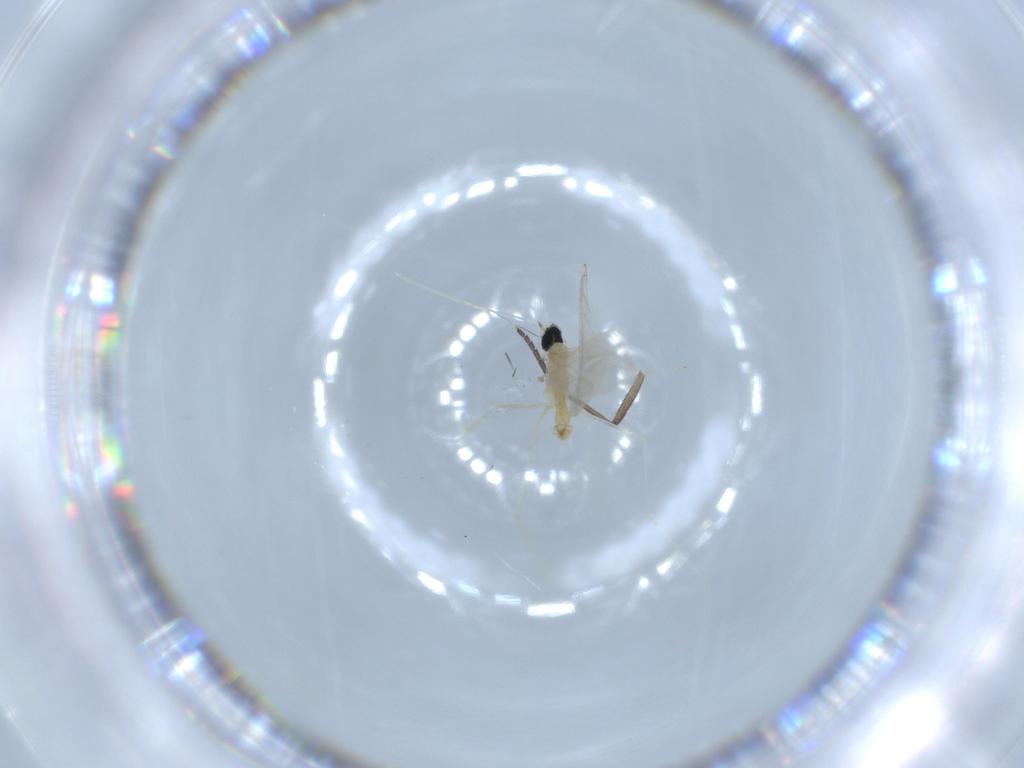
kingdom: Animalia
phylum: Arthropoda
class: Insecta
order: Diptera
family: Cecidomyiidae
